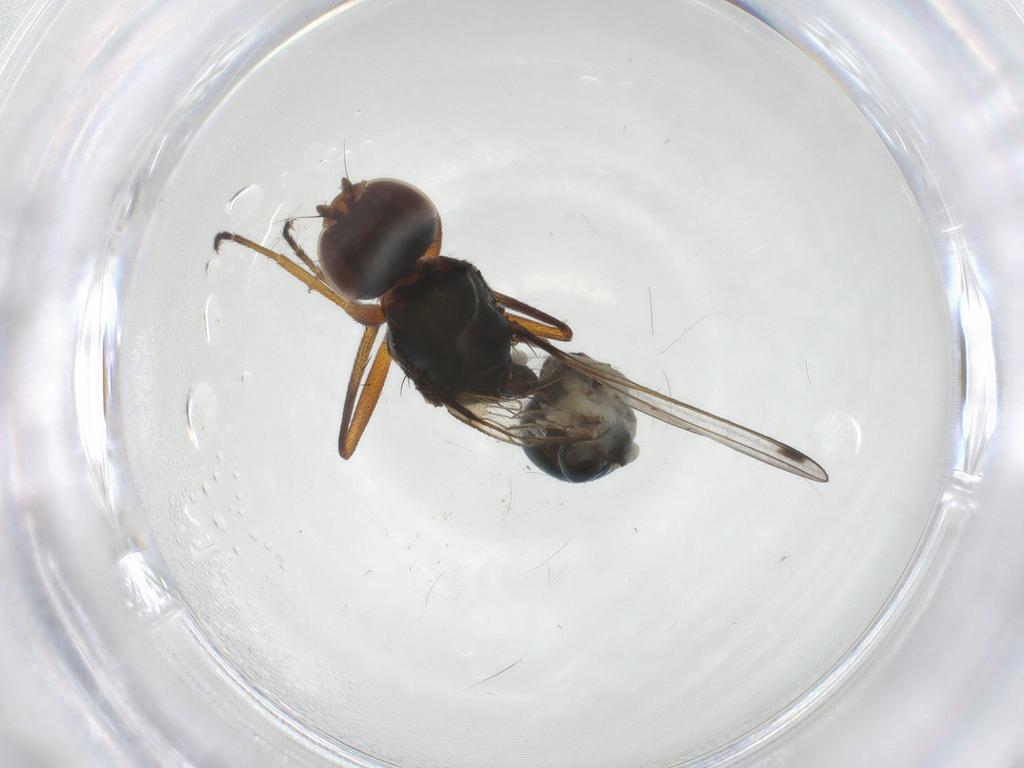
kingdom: Animalia
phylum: Arthropoda
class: Insecta
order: Diptera
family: Sepsidae
